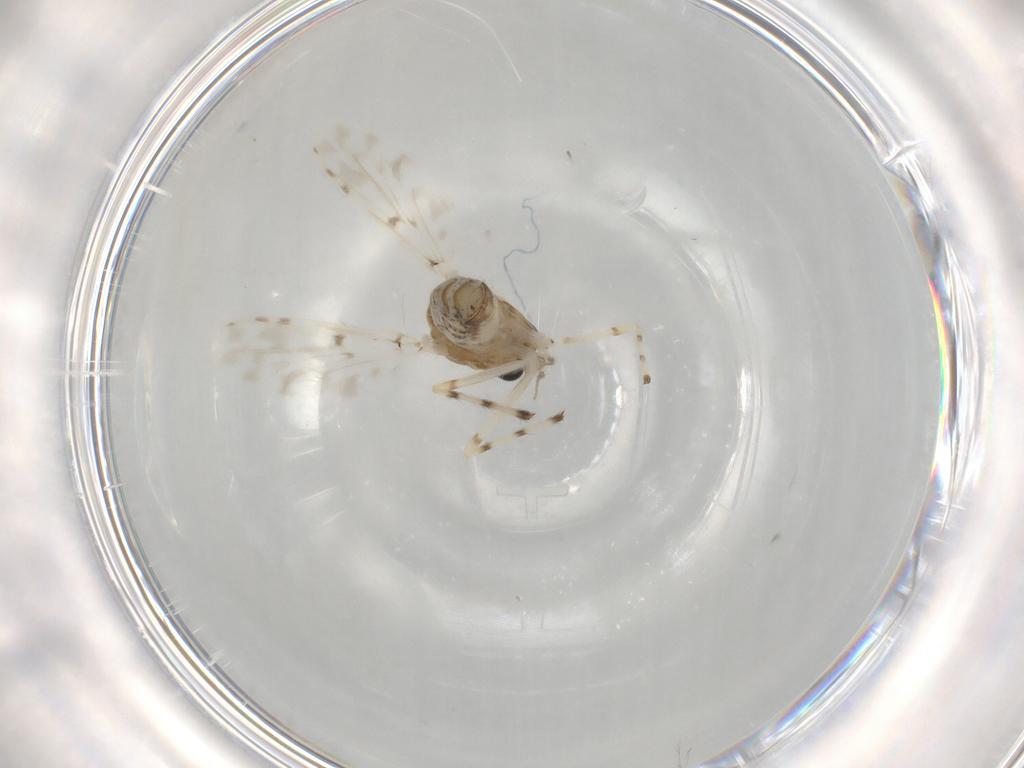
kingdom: Animalia
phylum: Arthropoda
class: Insecta
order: Diptera
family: Chironomidae
